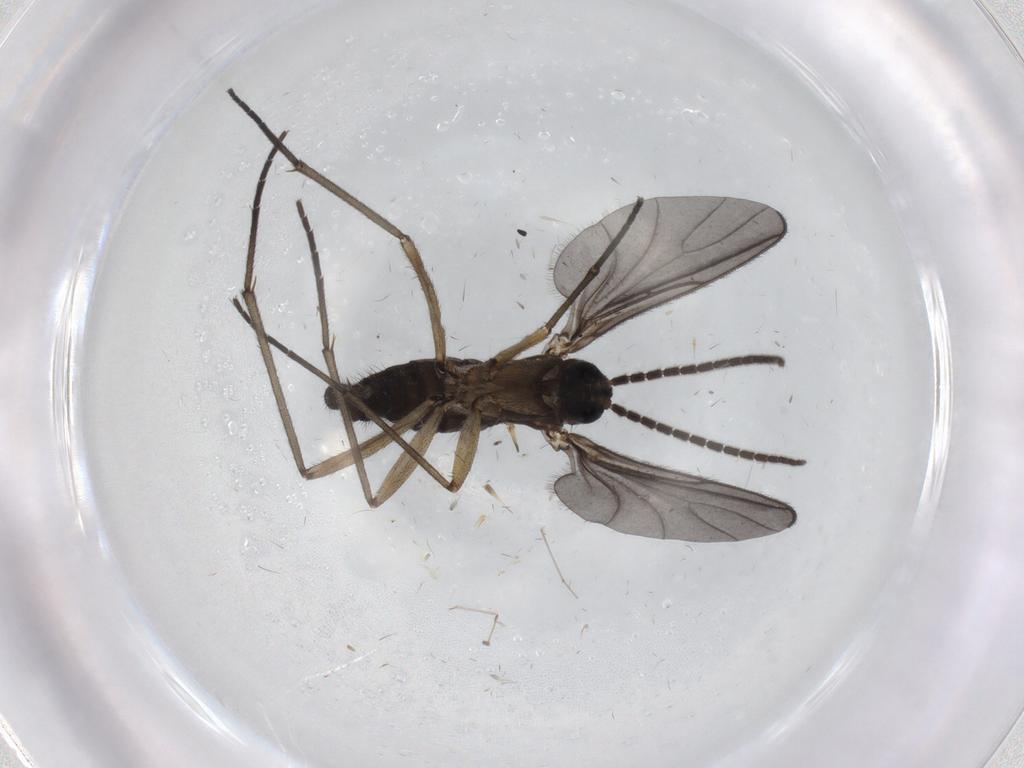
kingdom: Animalia
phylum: Arthropoda
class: Insecta
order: Diptera
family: Sciaridae
